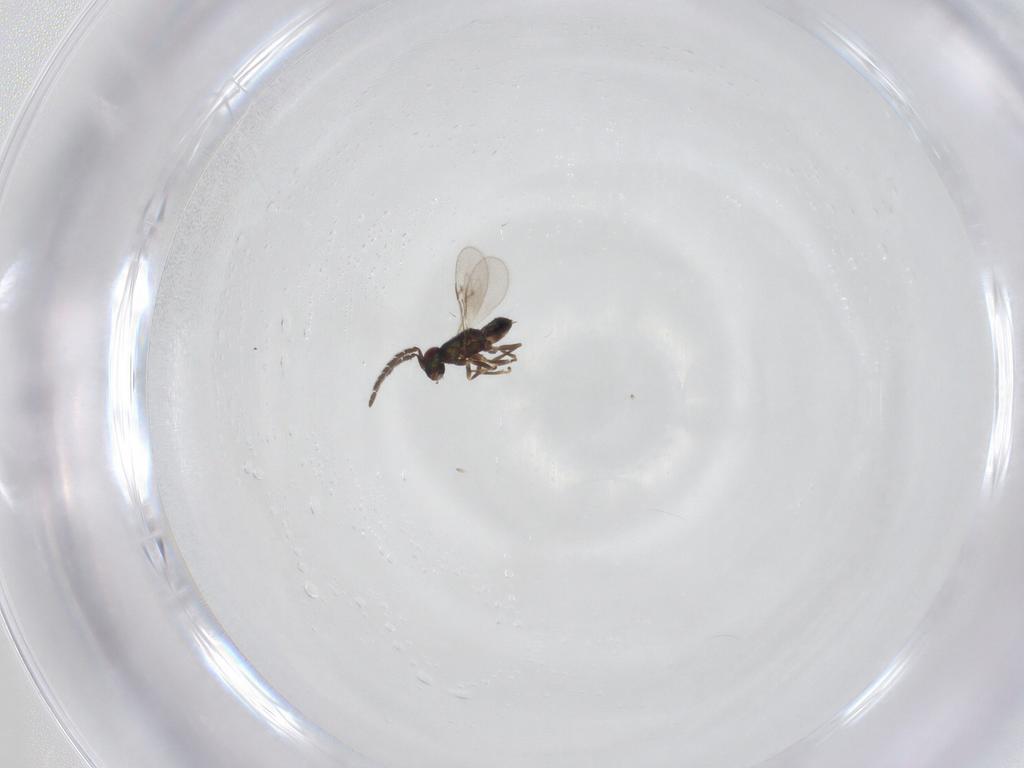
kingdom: Animalia
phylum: Arthropoda
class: Insecta
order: Hymenoptera
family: Encyrtidae
